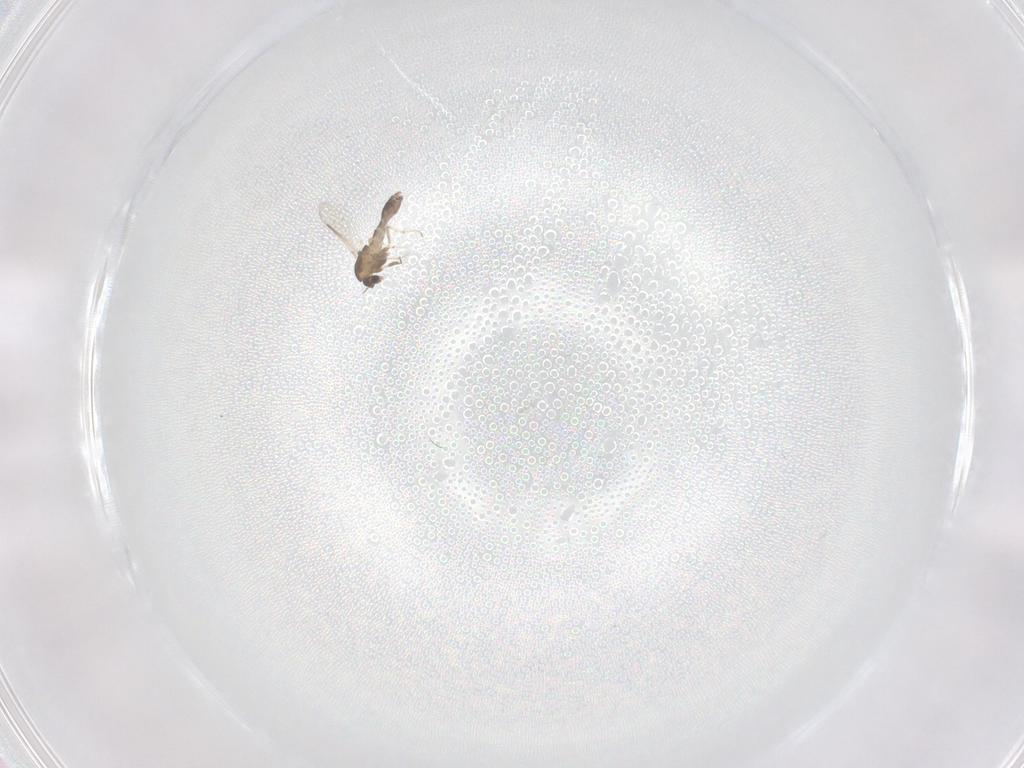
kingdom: Animalia
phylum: Arthropoda
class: Insecta
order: Diptera
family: Chironomidae
